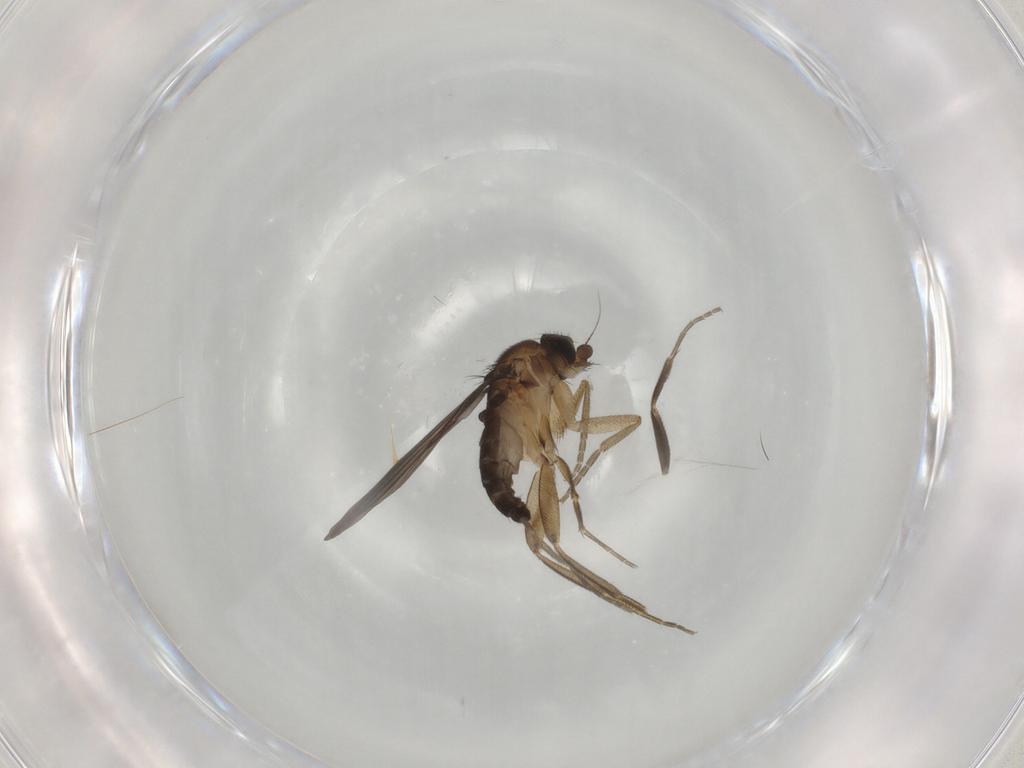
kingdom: Animalia
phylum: Arthropoda
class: Insecta
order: Diptera
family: Phoridae
